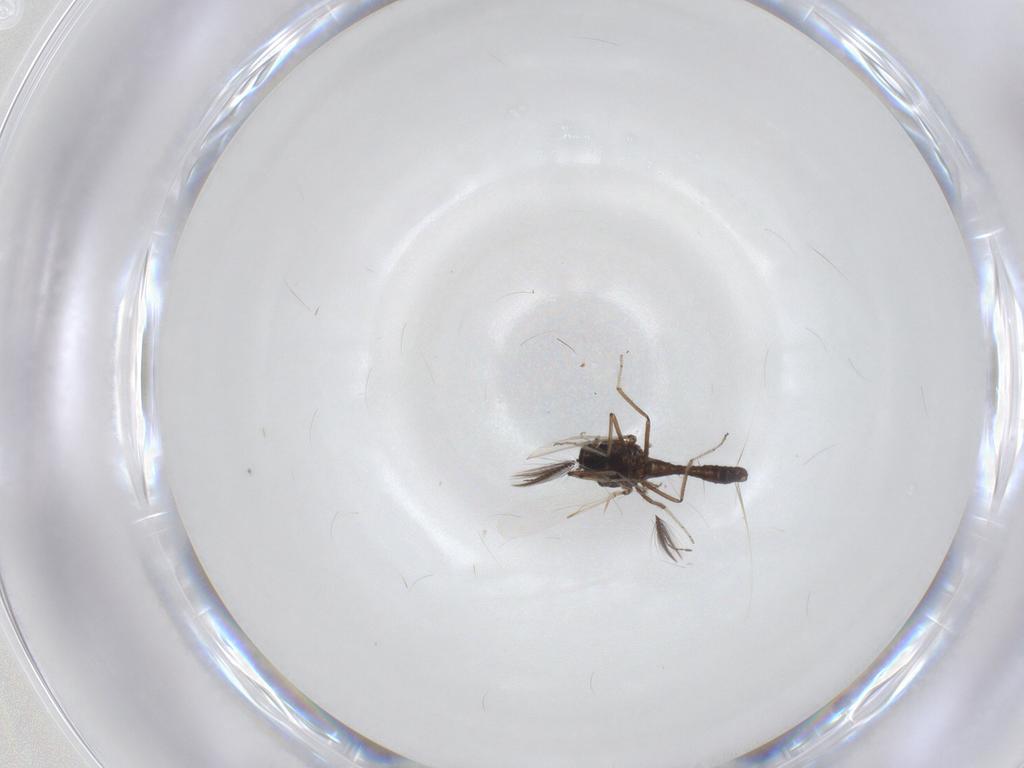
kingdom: Animalia
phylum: Arthropoda
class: Insecta
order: Diptera
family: Ceratopogonidae
